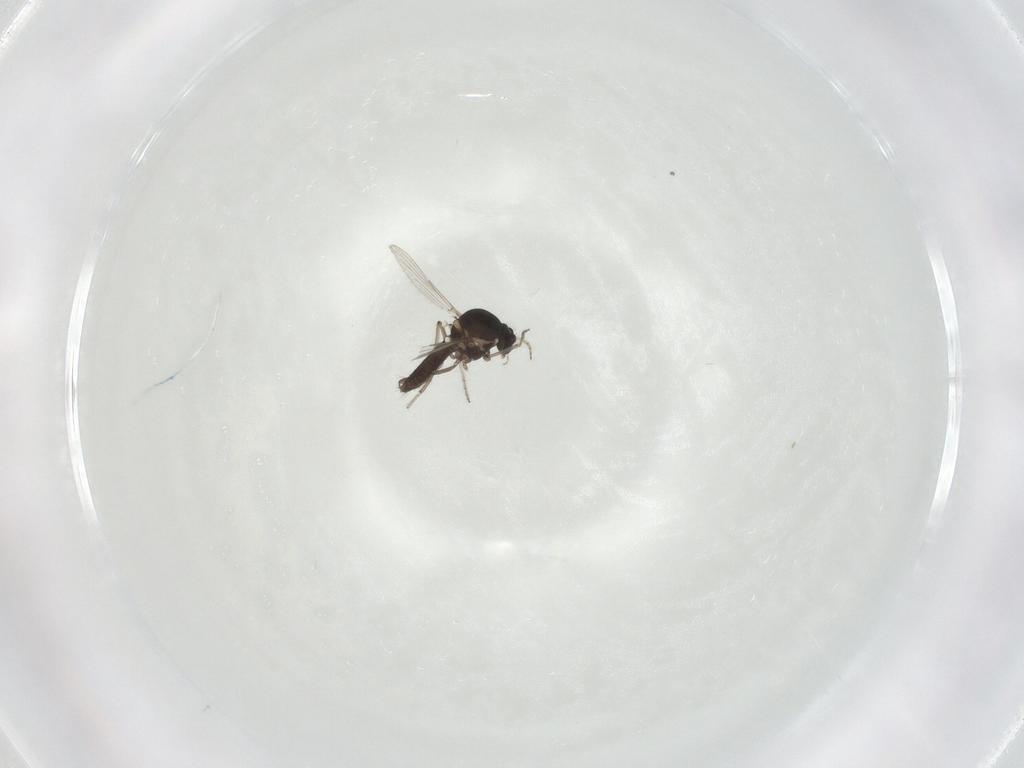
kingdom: Animalia
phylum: Arthropoda
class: Insecta
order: Diptera
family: Ceratopogonidae
